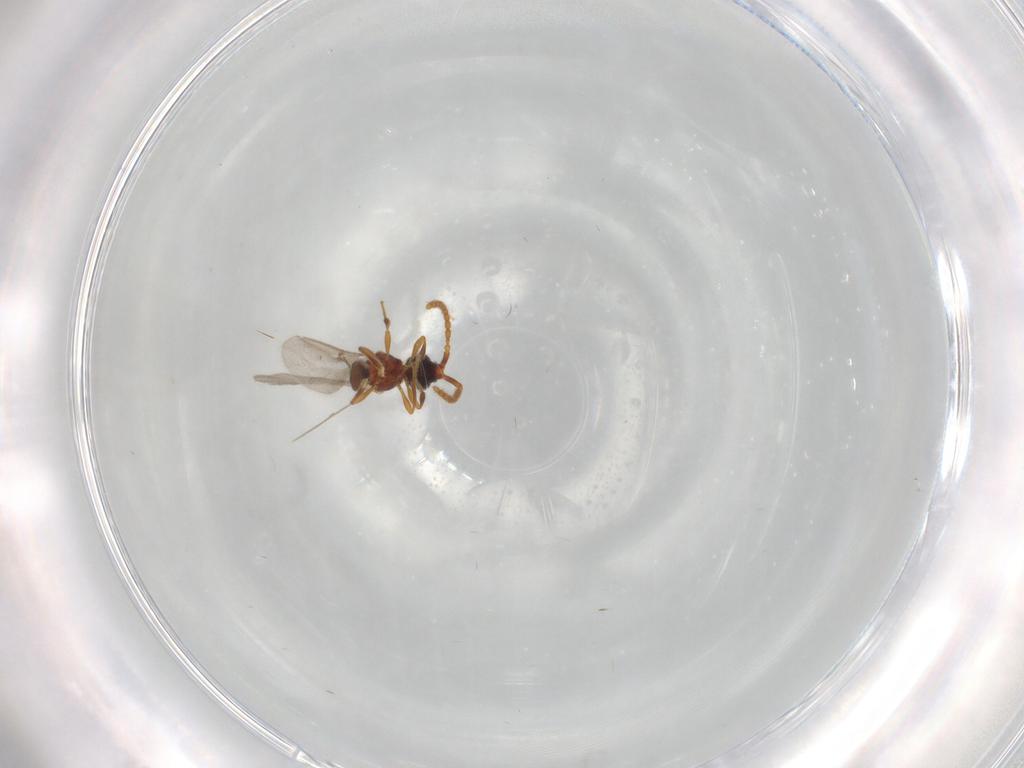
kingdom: Animalia
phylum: Arthropoda
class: Insecta
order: Hymenoptera
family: Diapriidae
